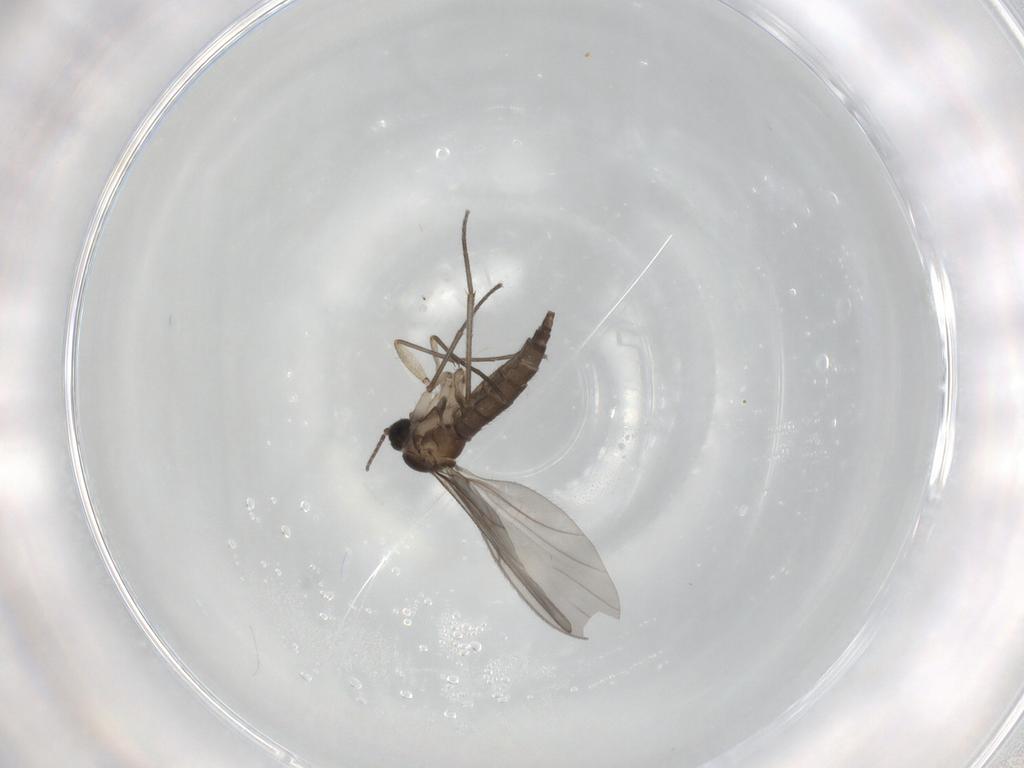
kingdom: Animalia
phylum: Arthropoda
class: Insecta
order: Diptera
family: Sciaridae
